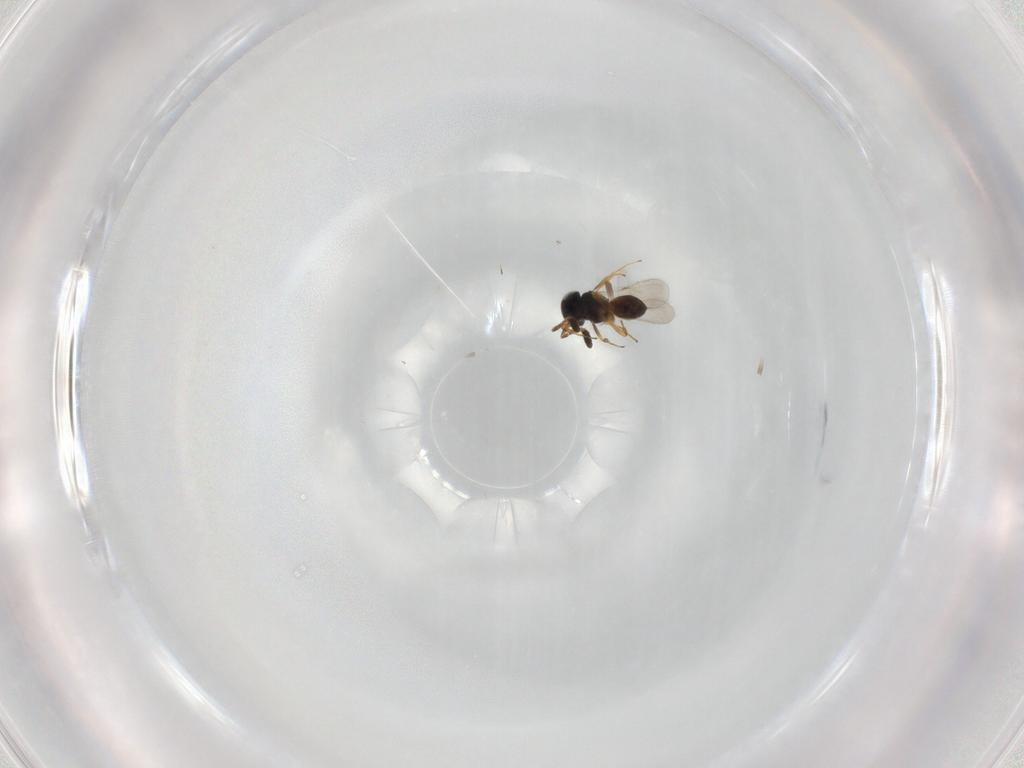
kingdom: Animalia
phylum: Arthropoda
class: Insecta
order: Hymenoptera
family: Scelionidae
